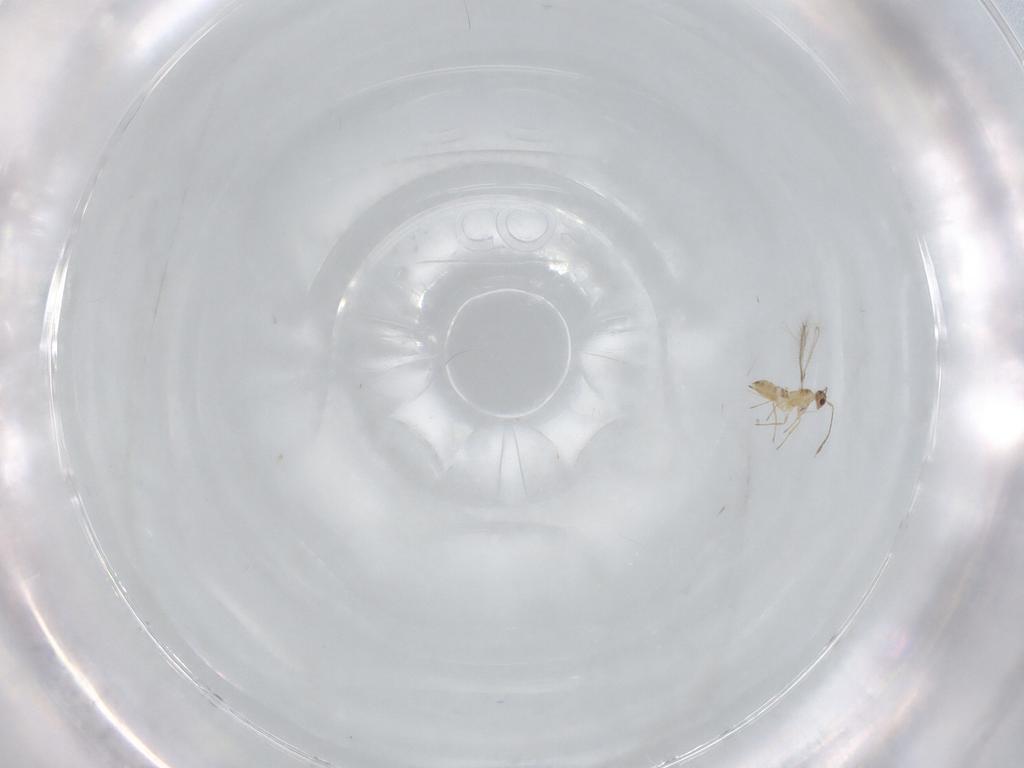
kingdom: Animalia
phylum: Arthropoda
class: Insecta
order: Hymenoptera
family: Mymaridae
